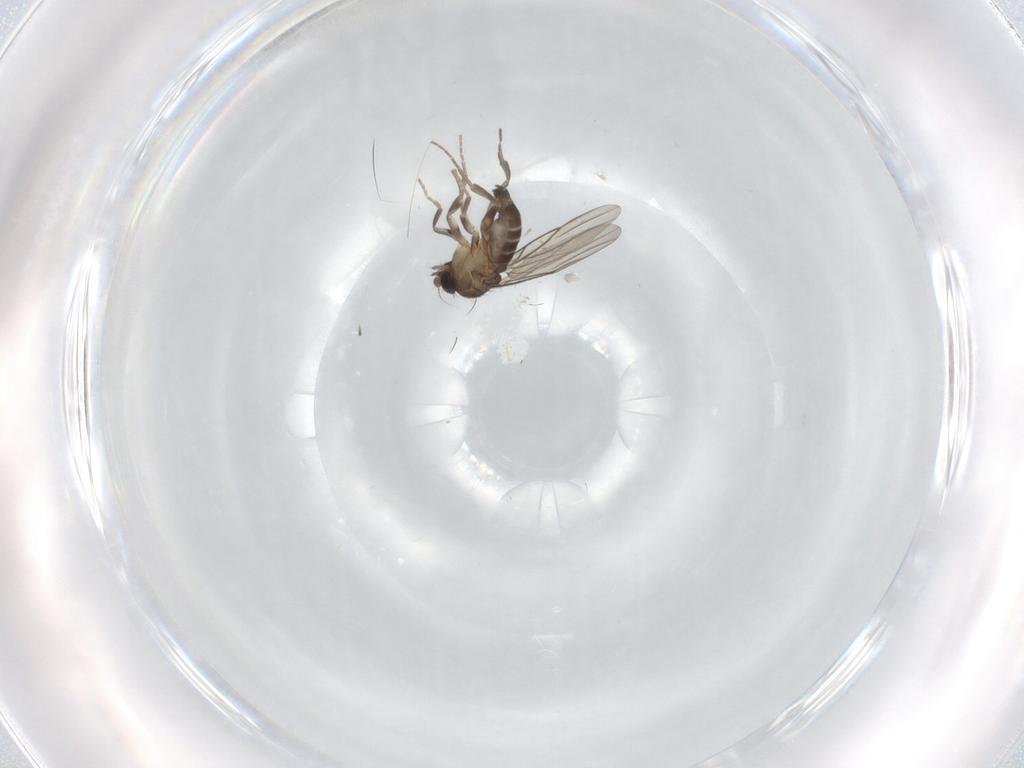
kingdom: Animalia
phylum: Arthropoda
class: Insecta
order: Diptera
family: Phoridae
